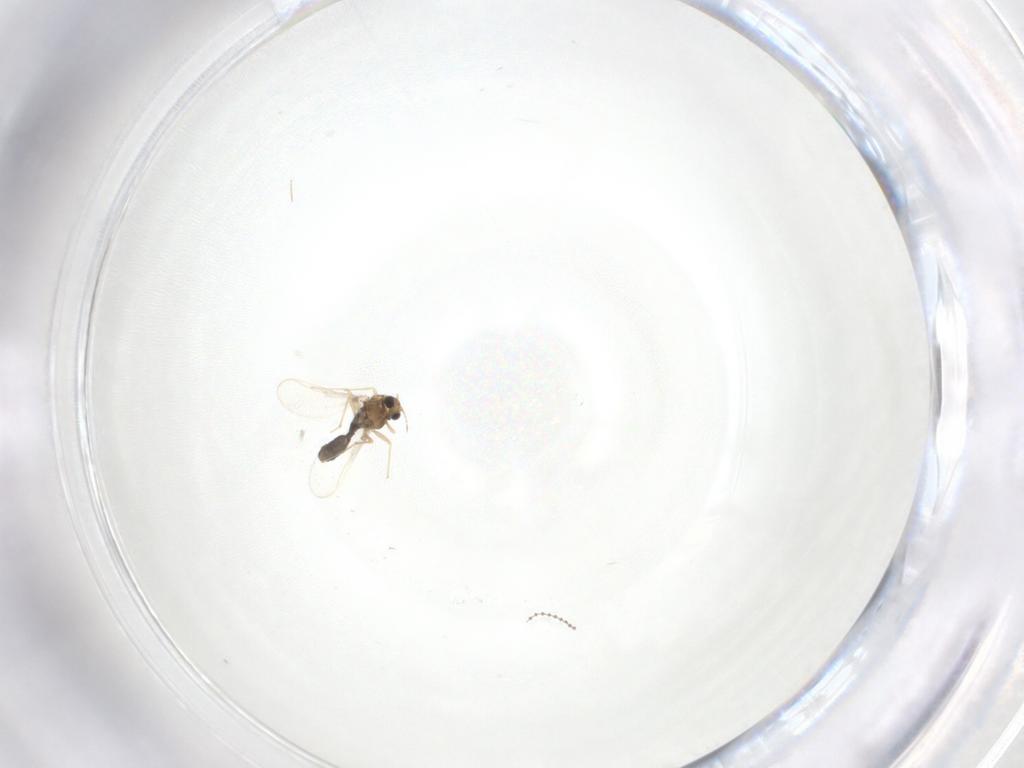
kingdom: Animalia
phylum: Arthropoda
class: Insecta
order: Diptera
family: Chironomidae
